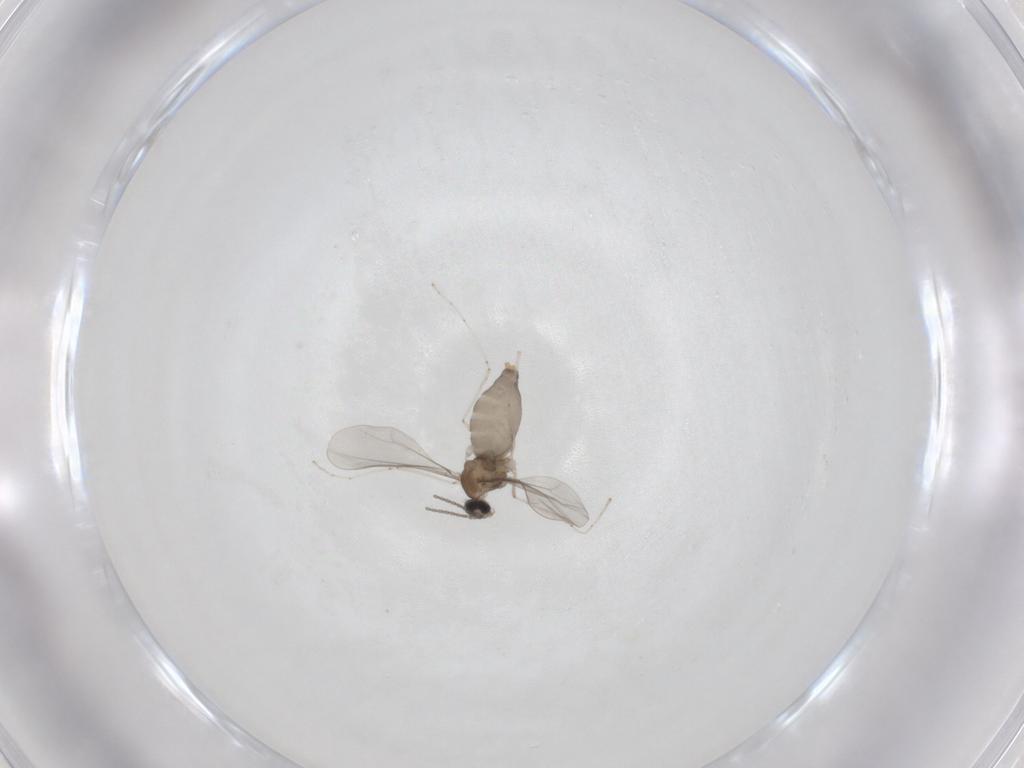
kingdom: Animalia
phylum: Arthropoda
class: Insecta
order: Diptera
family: Cecidomyiidae
